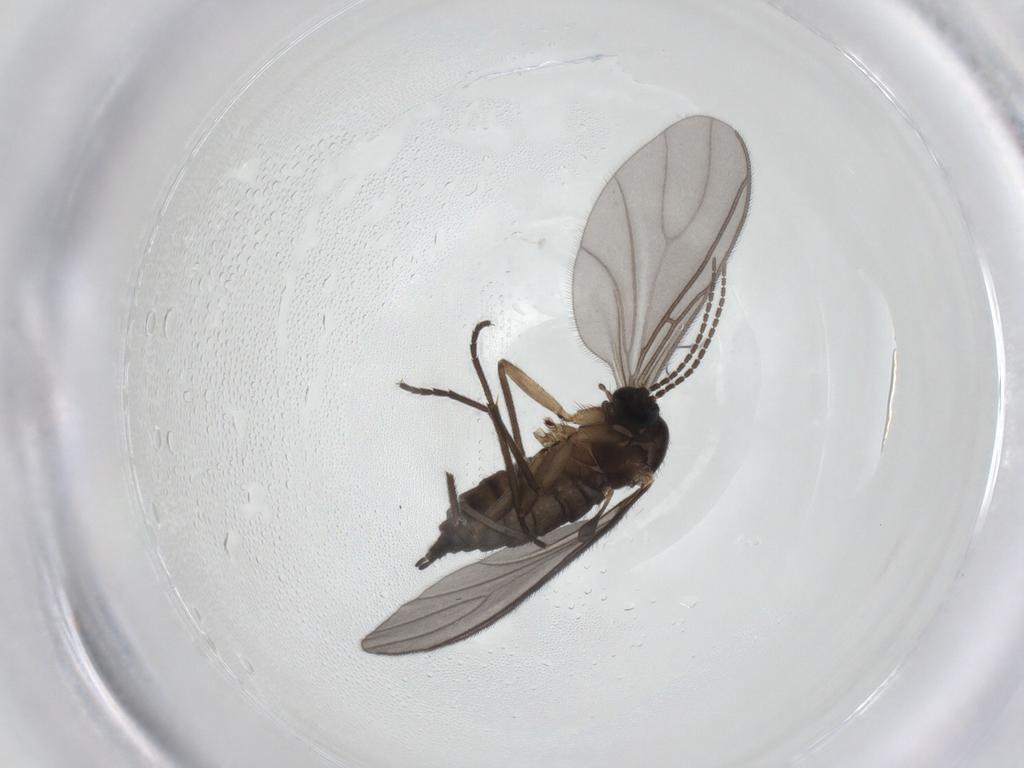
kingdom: Animalia
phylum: Arthropoda
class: Insecta
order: Diptera
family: Sciaridae
